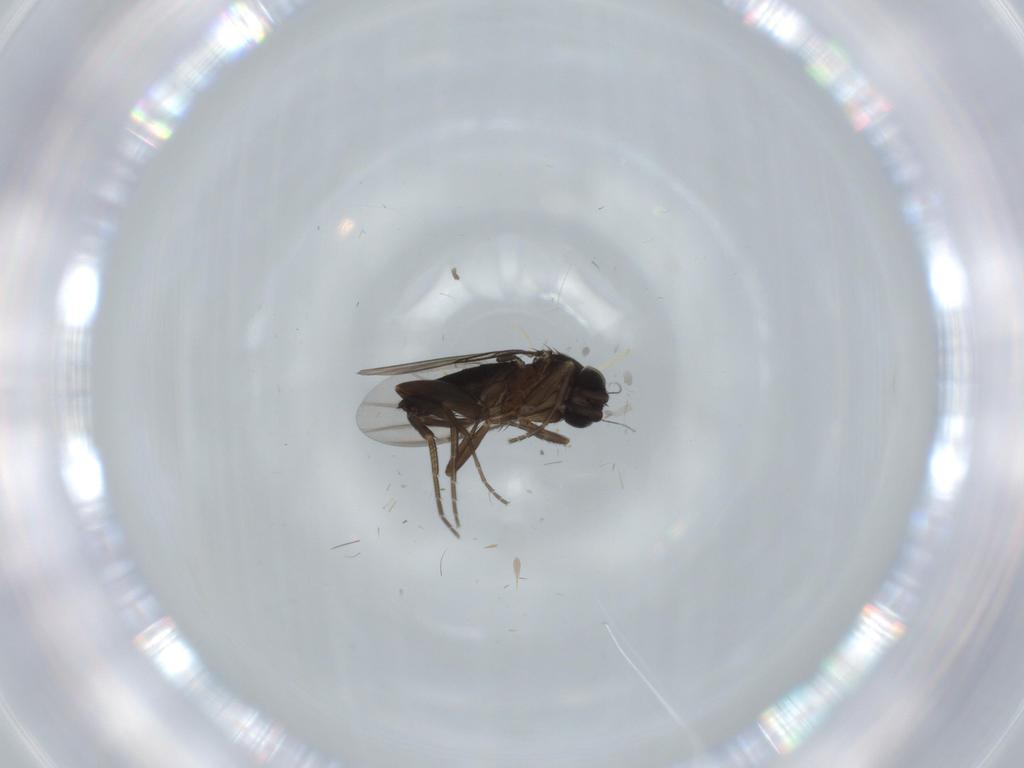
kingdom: Animalia
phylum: Arthropoda
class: Insecta
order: Diptera
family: Phoridae
